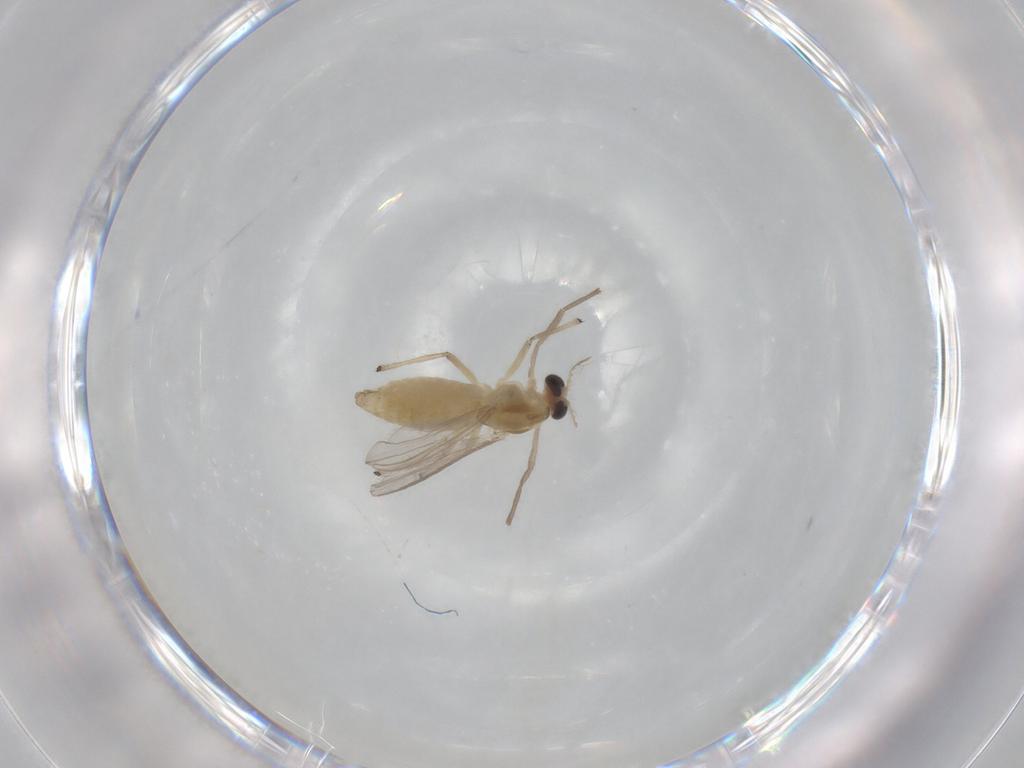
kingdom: Animalia
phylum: Arthropoda
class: Insecta
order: Diptera
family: Chironomidae
